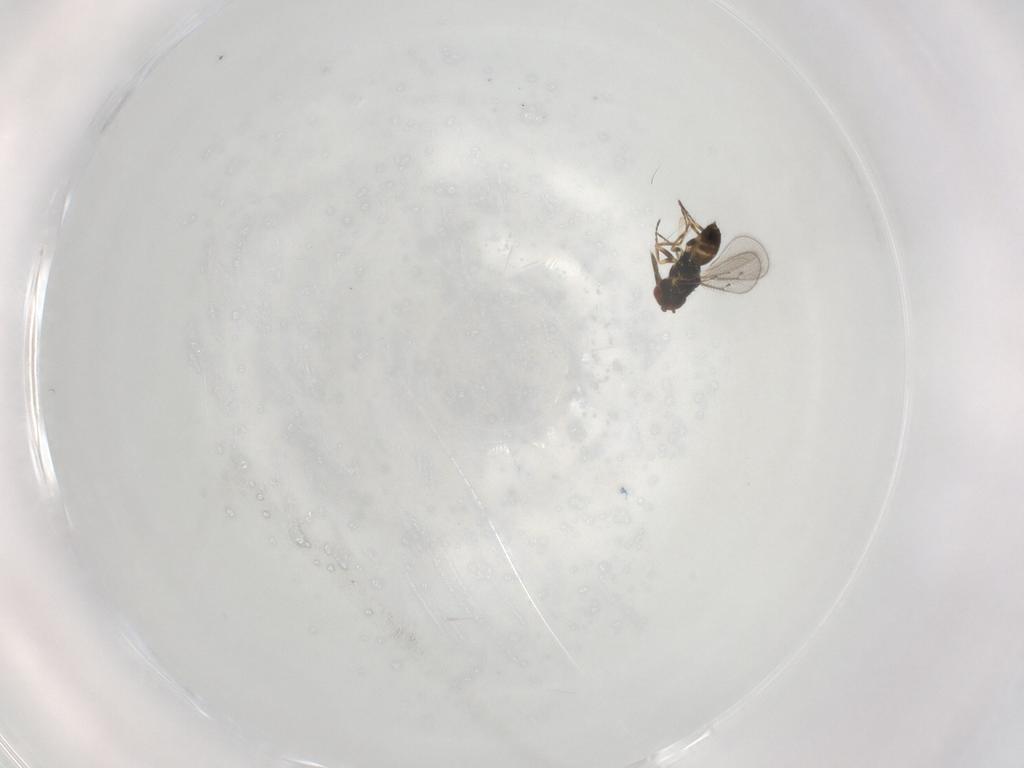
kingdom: Animalia
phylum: Arthropoda
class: Insecta
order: Hymenoptera
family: Eulophidae
